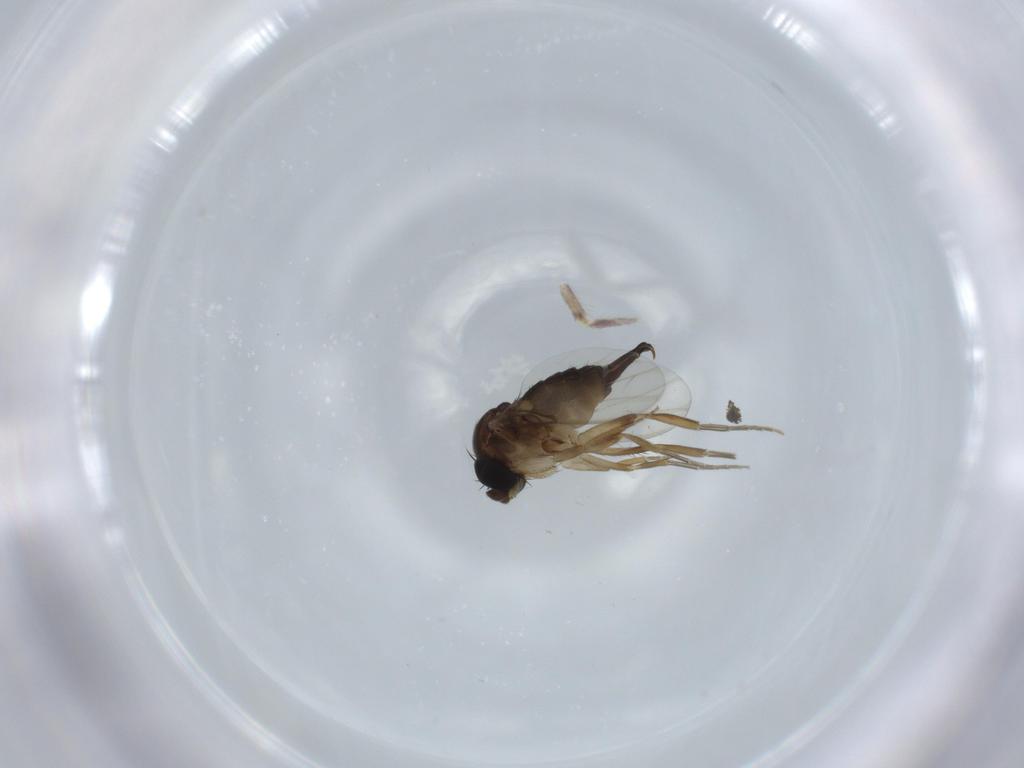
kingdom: Animalia
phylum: Arthropoda
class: Insecta
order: Diptera
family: Phoridae
